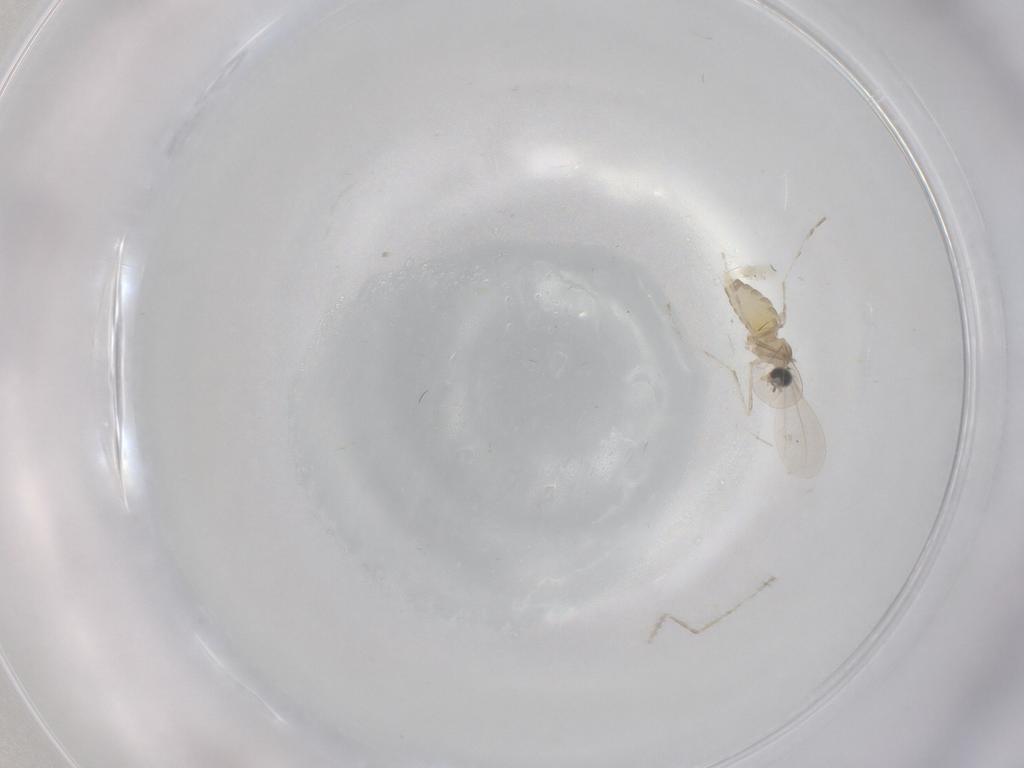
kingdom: Animalia
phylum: Arthropoda
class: Insecta
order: Diptera
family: Cecidomyiidae
